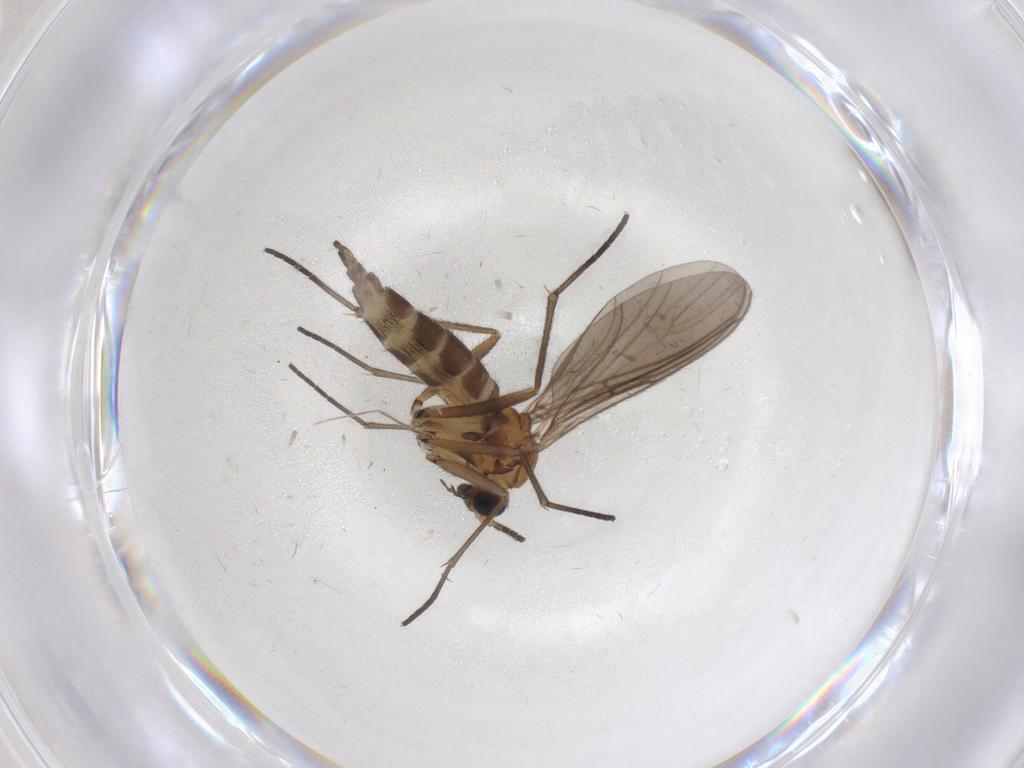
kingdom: Animalia
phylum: Arthropoda
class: Insecta
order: Diptera
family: Sciaridae
